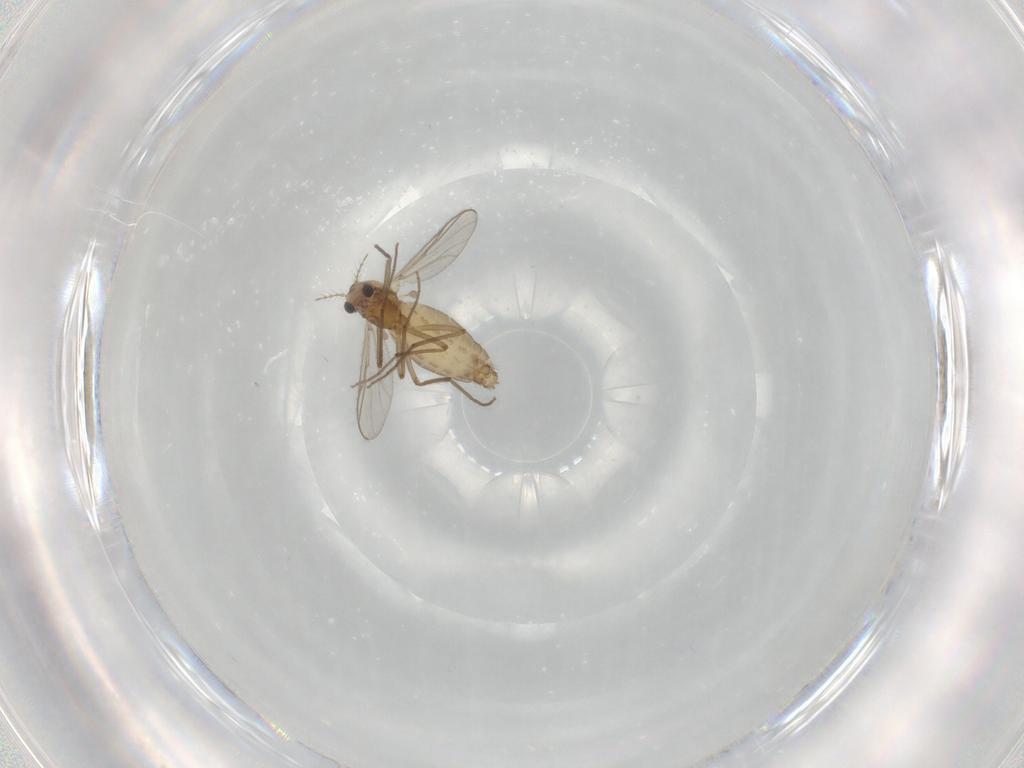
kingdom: Animalia
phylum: Arthropoda
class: Insecta
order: Diptera
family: Chironomidae
